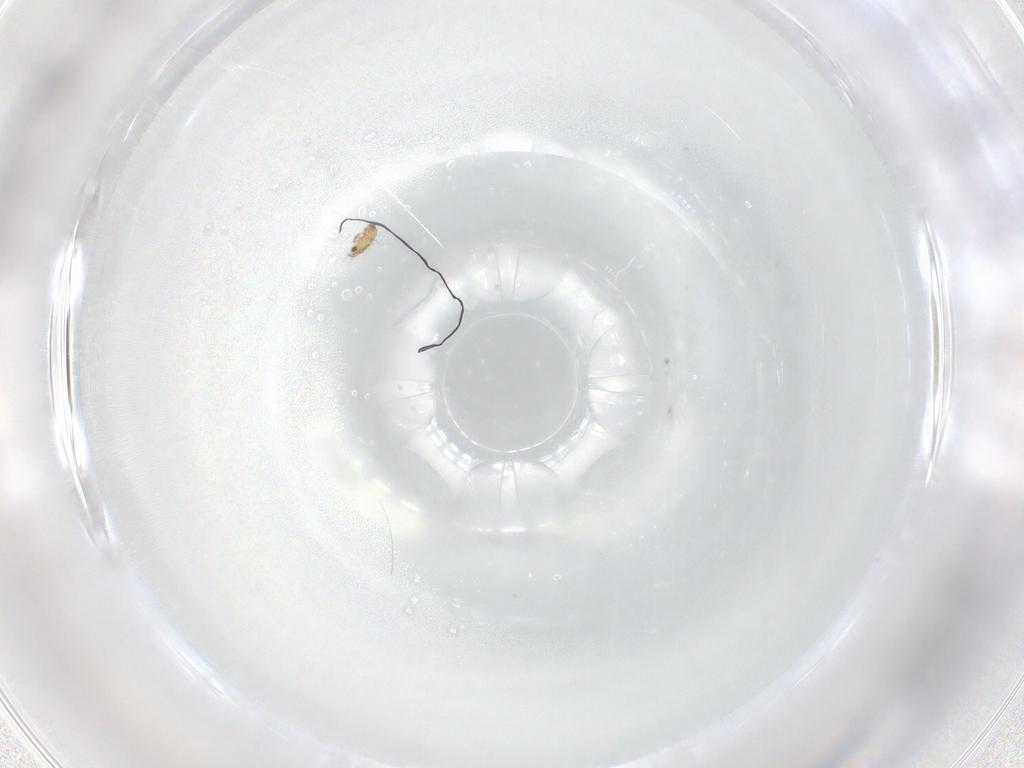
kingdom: Animalia
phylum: Arthropoda
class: Arachnida
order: Sarcoptiformes
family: Humerobatidae
